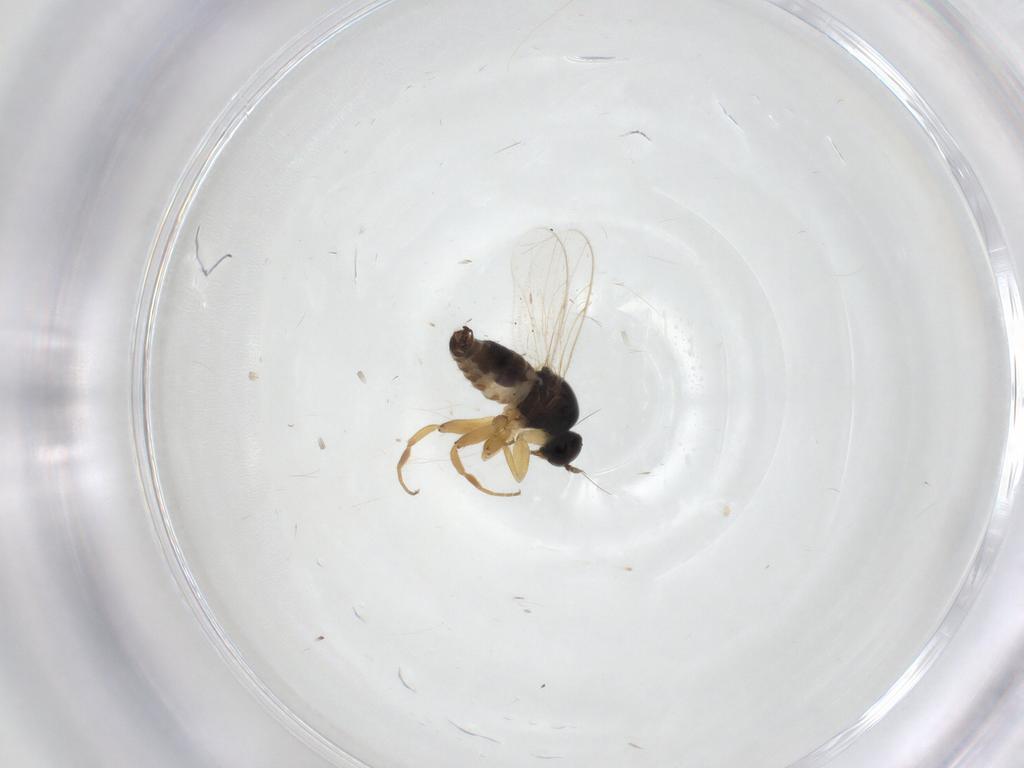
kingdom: Animalia
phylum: Arthropoda
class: Insecta
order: Diptera
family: Hybotidae
